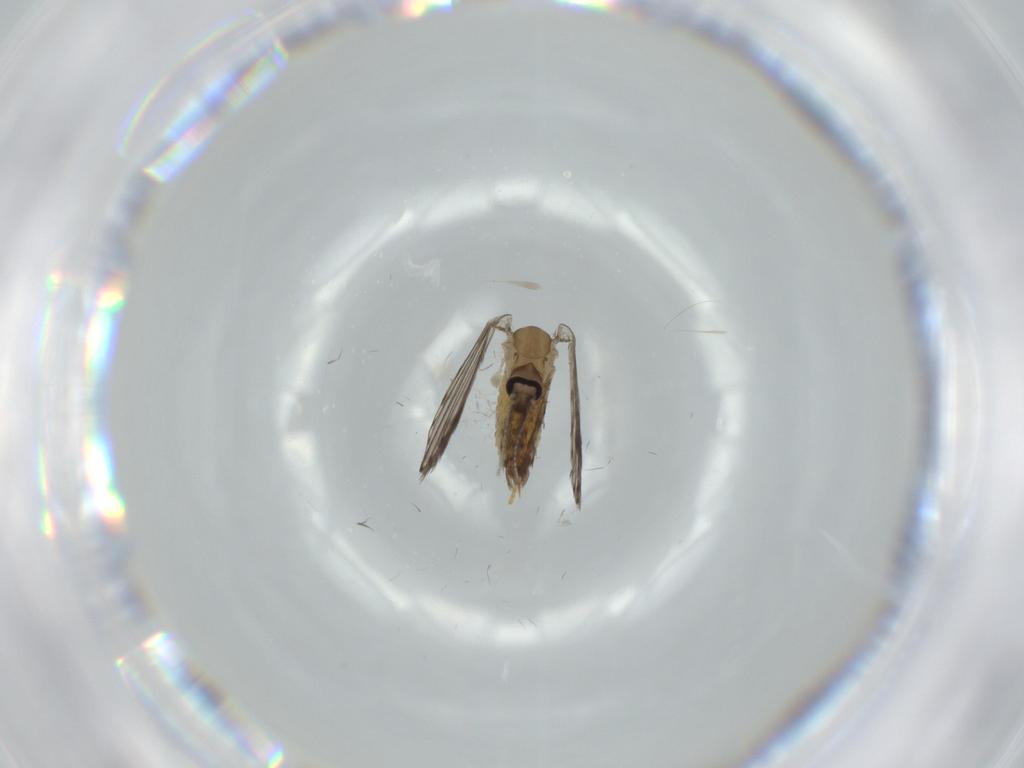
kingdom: Animalia
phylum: Arthropoda
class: Insecta
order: Diptera
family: Psychodidae
